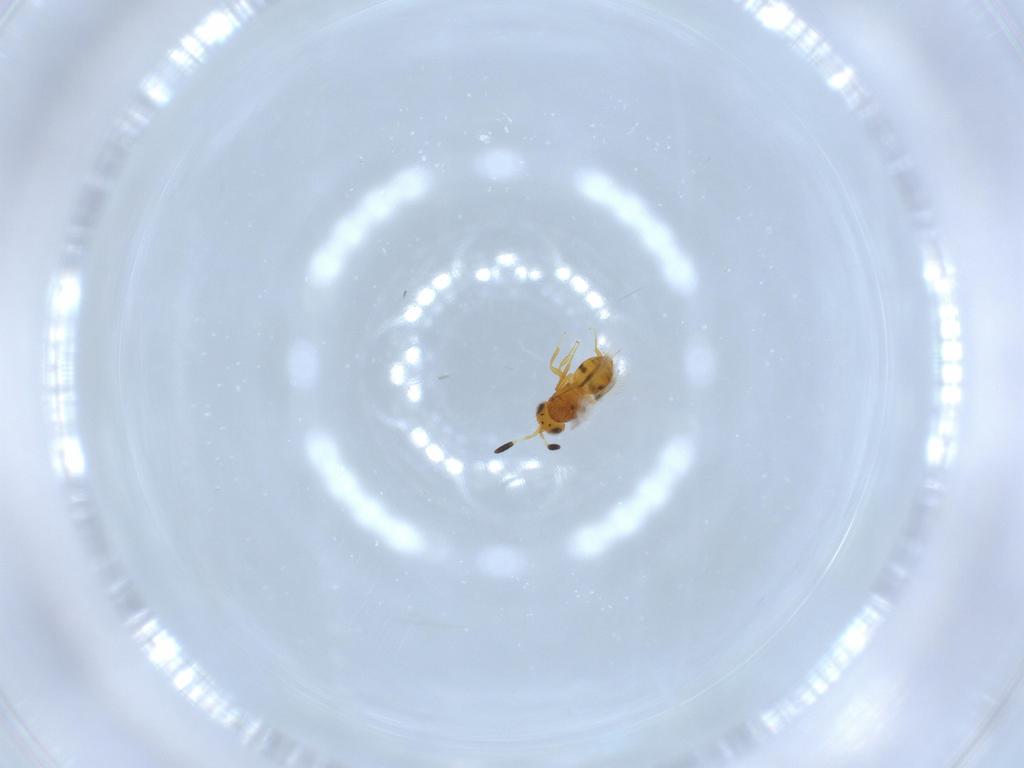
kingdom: Animalia
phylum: Arthropoda
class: Insecta
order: Hymenoptera
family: Scelionidae
